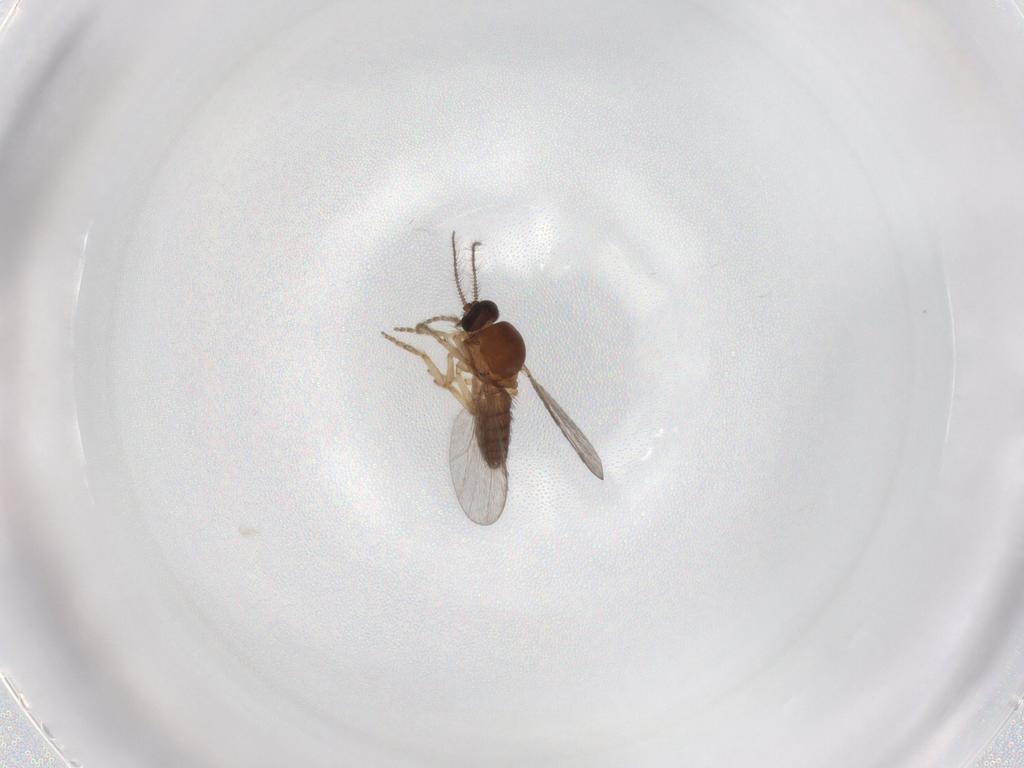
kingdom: Animalia
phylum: Arthropoda
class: Insecta
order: Diptera
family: Ceratopogonidae
